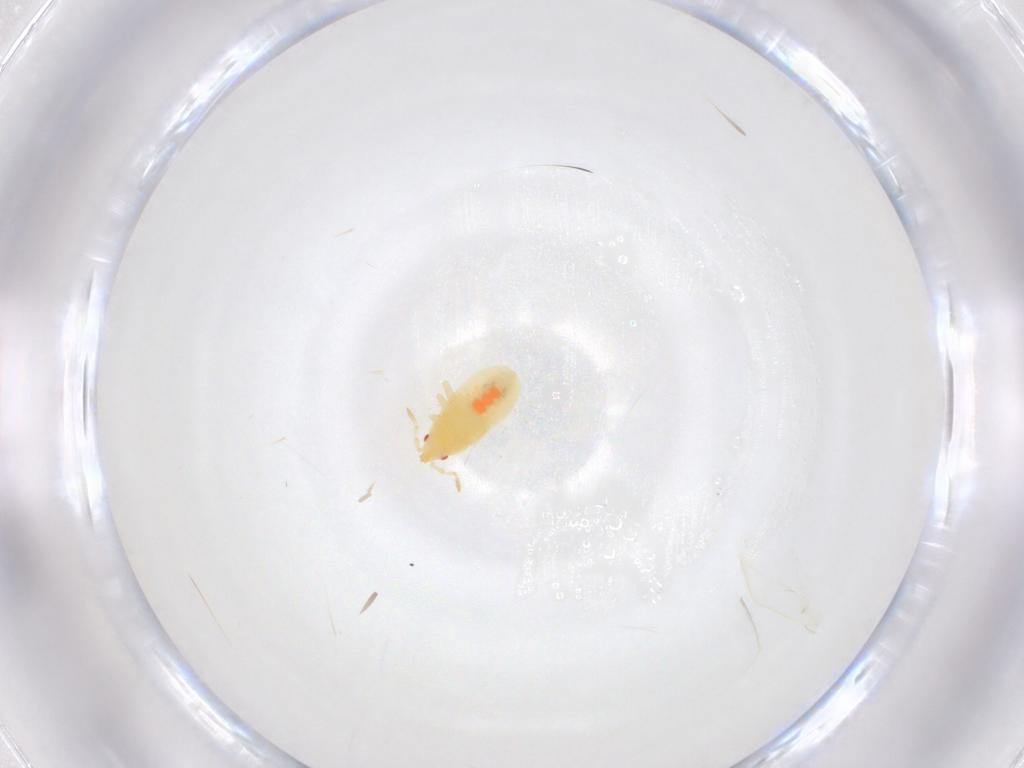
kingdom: Animalia
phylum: Arthropoda
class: Insecta
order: Hemiptera
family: Anthocoridae
